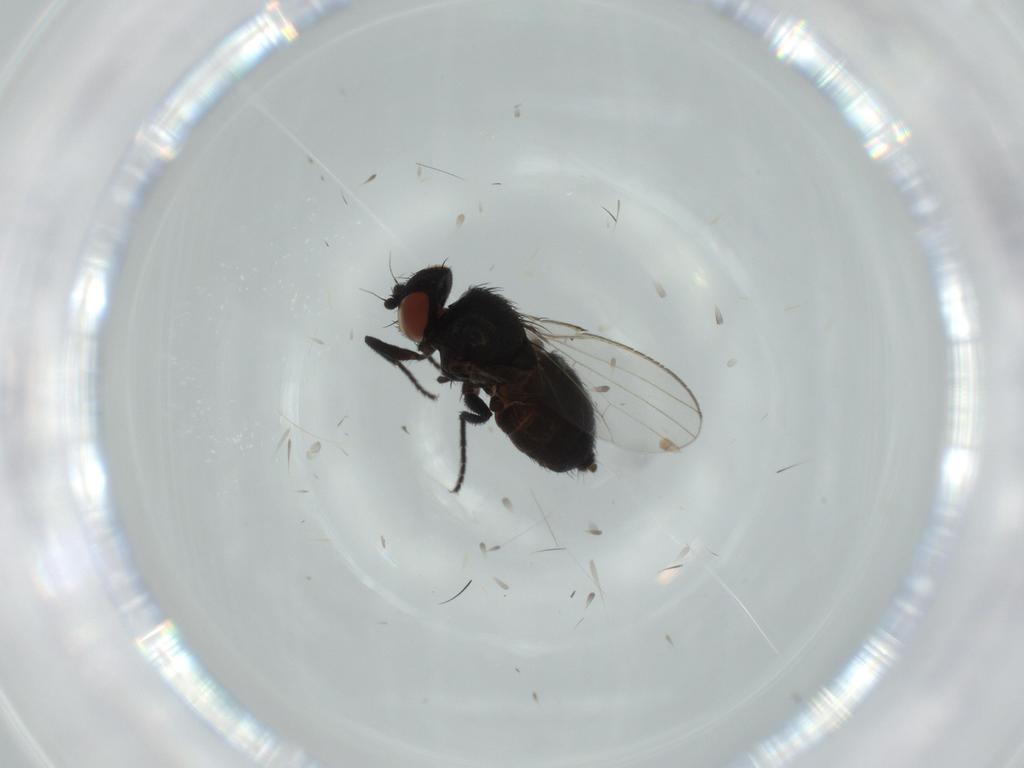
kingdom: Animalia
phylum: Arthropoda
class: Insecta
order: Diptera
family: Milichiidae
